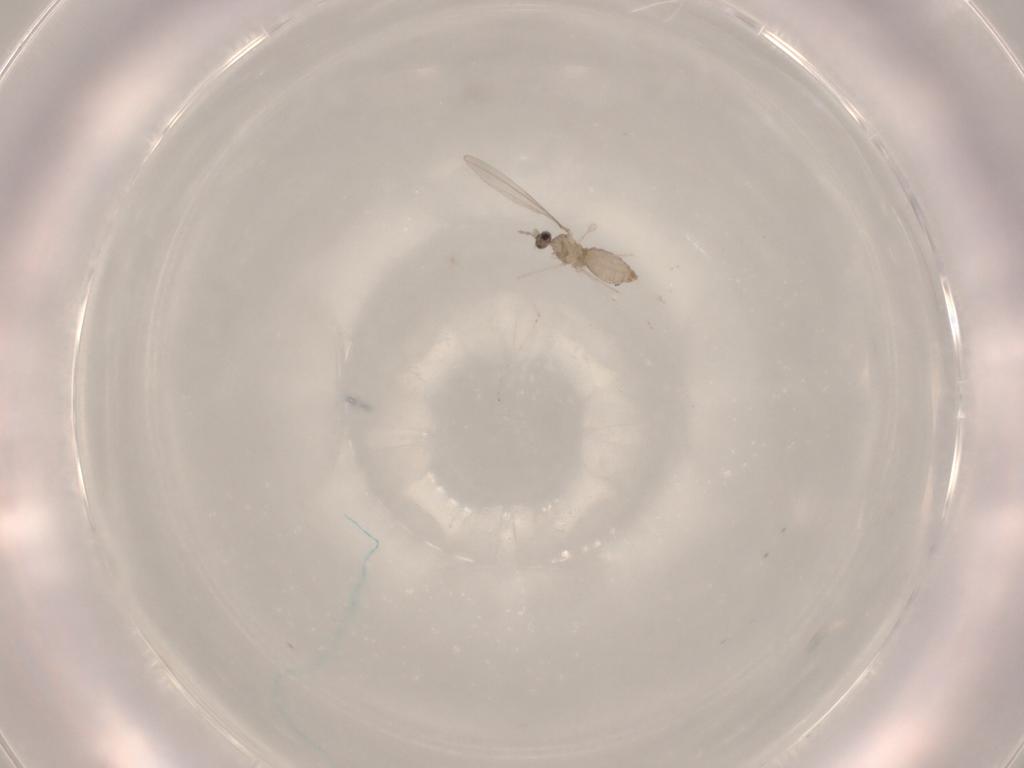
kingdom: Animalia
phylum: Arthropoda
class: Insecta
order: Diptera
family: Cecidomyiidae
